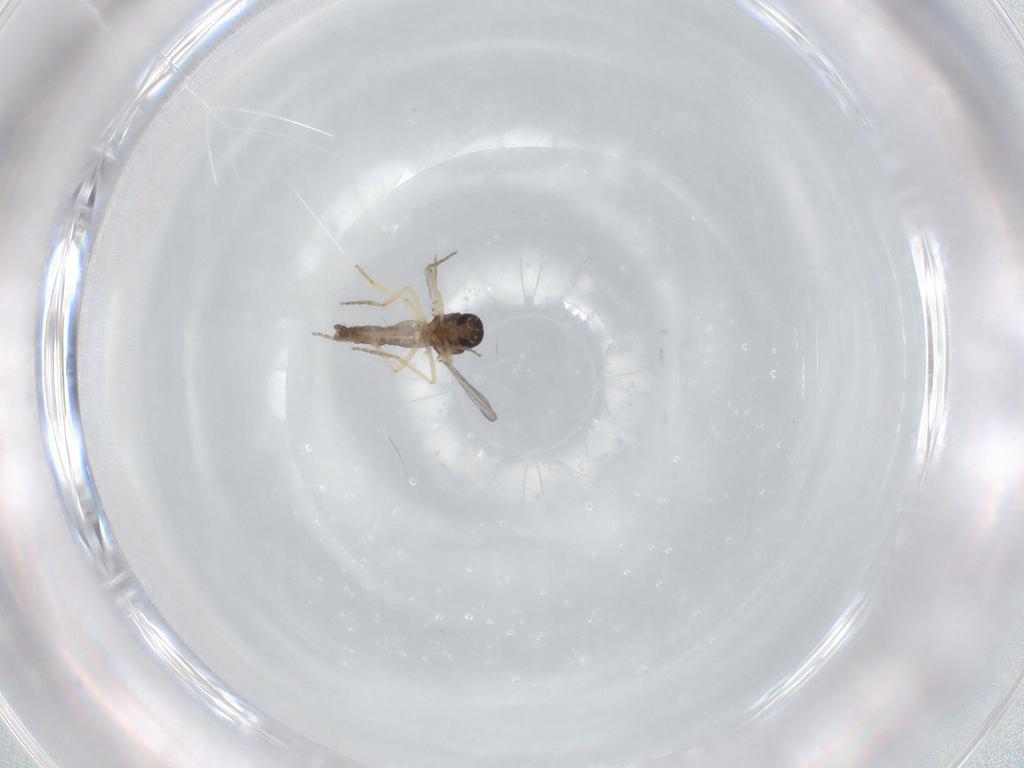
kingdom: Animalia
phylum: Arthropoda
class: Insecta
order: Diptera
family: Ceratopogonidae
